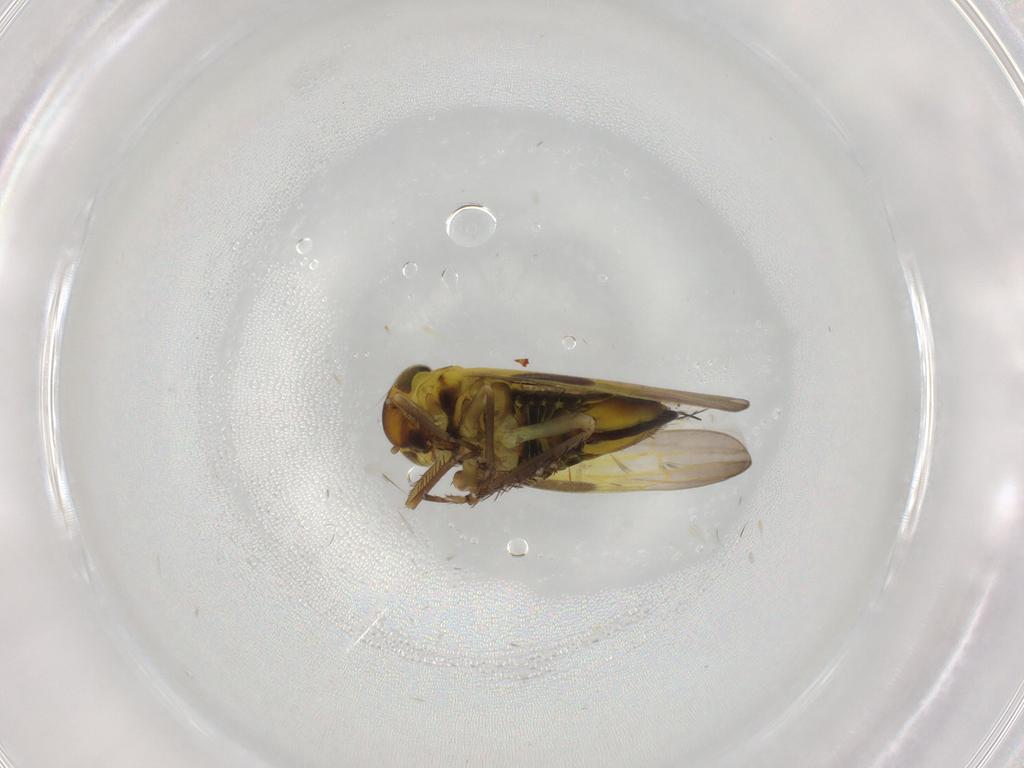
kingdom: Animalia
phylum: Arthropoda
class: Insecta
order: Hemiptera
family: Cicadellidae
